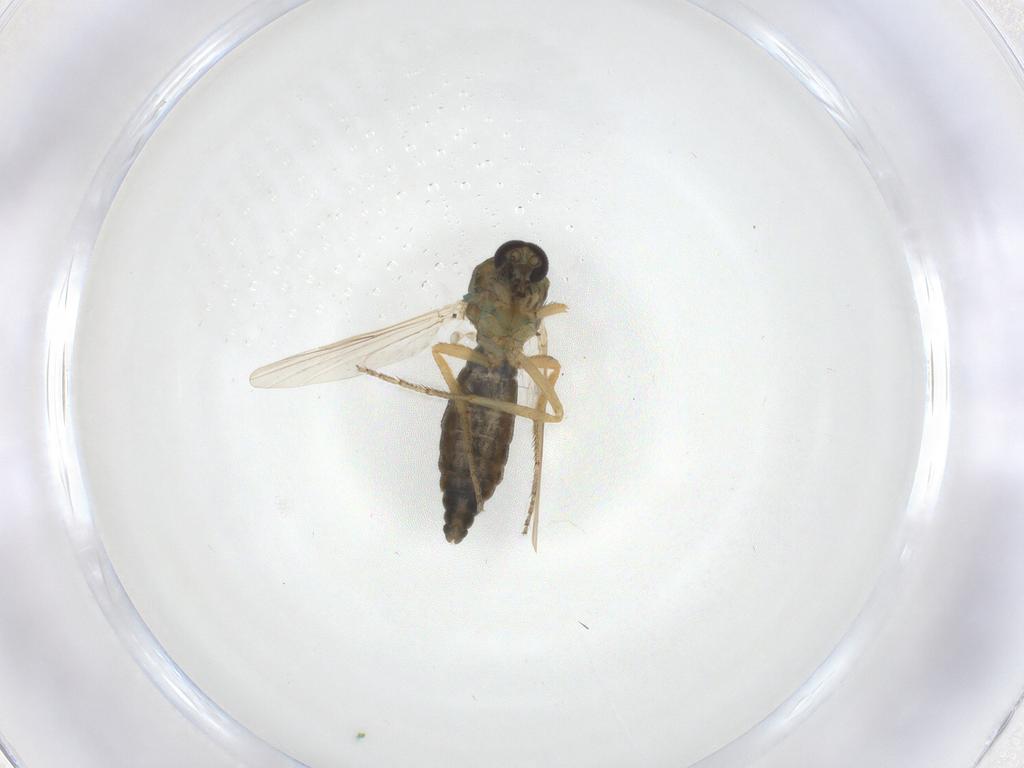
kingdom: Animalia
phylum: Arthropoda
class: Insecta
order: Diptera
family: Ceratopogonidae
